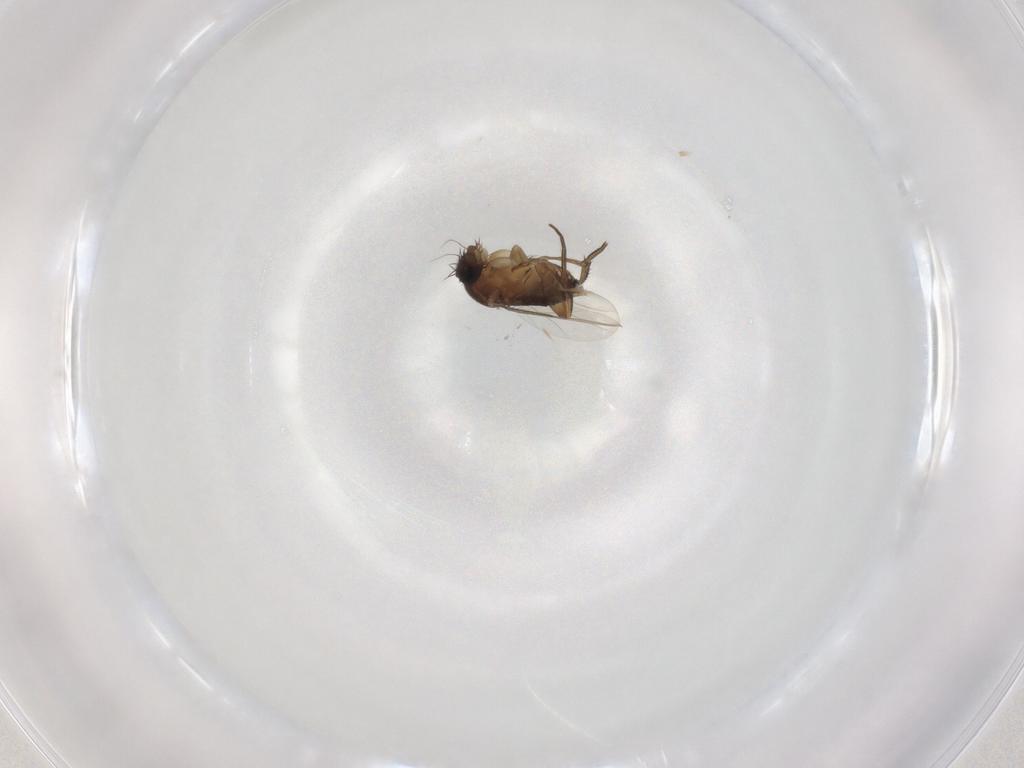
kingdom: Animalia
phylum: Arthropoda
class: Insecta
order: Diptera
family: Phoridae
